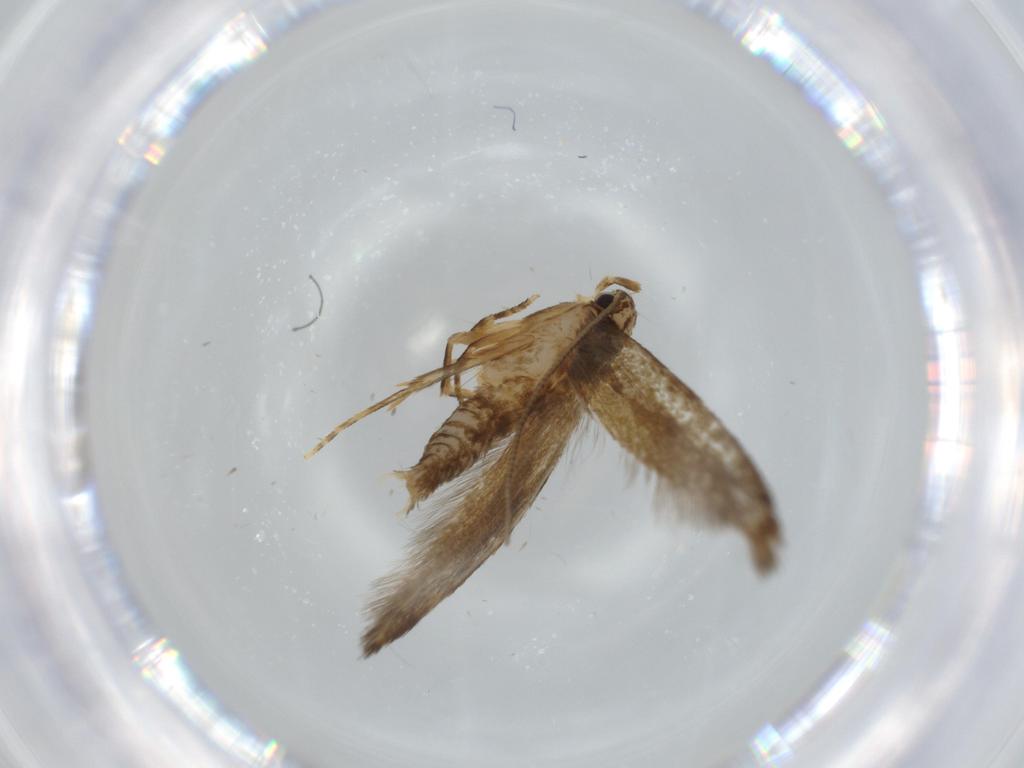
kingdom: Animalia
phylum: Arthropoda
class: Insecta
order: Lepidoptera
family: Tineidae
